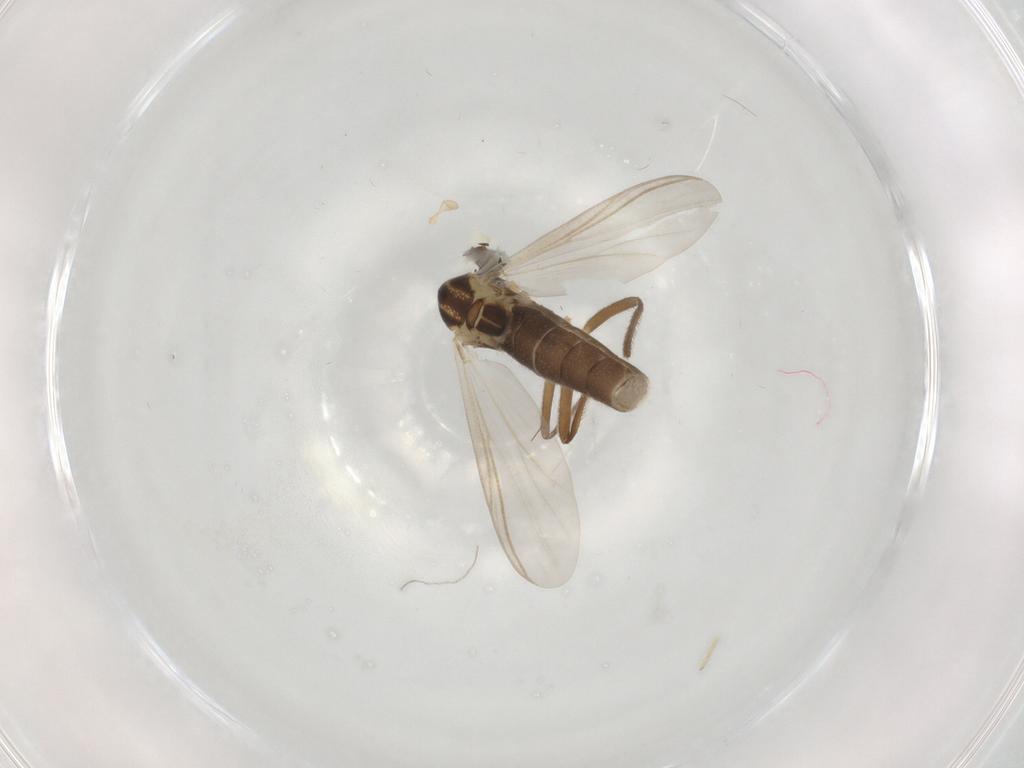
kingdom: Animalia
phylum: Arthropoda
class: Insecta
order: Diptera
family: Chironomidae
